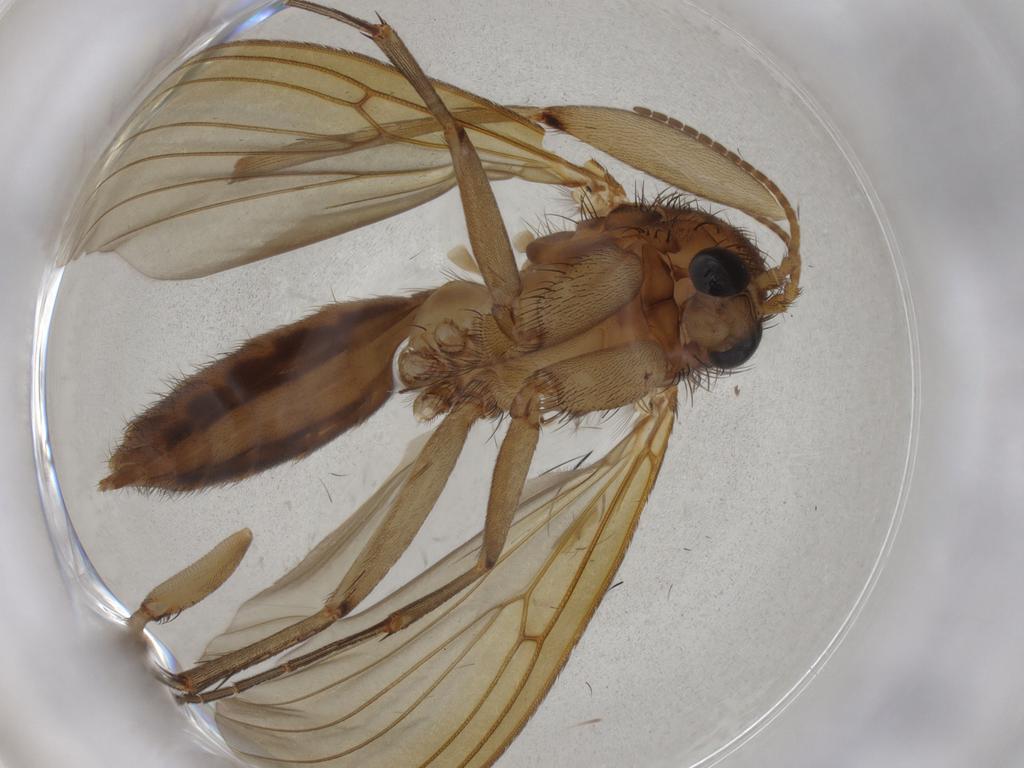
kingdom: Animalia
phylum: Arthropoda
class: Insecta
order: Diptera
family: Cecidomyiidae
